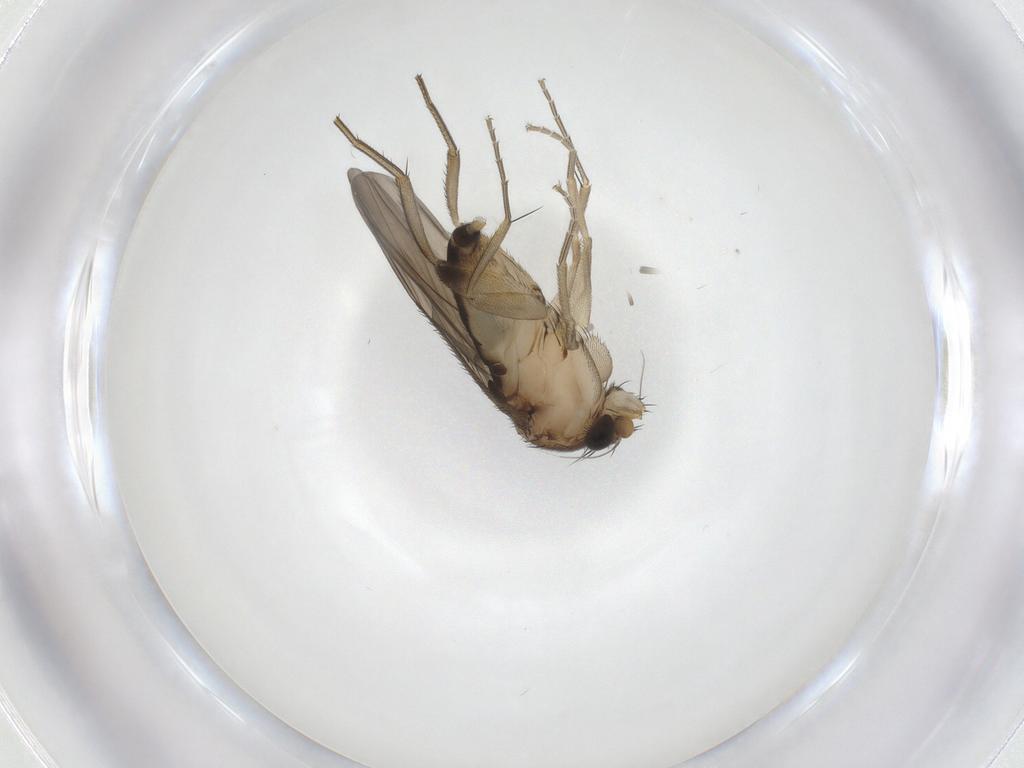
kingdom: Animalia
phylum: Arthropoda
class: Insecta
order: Diptera
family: Phoridae
